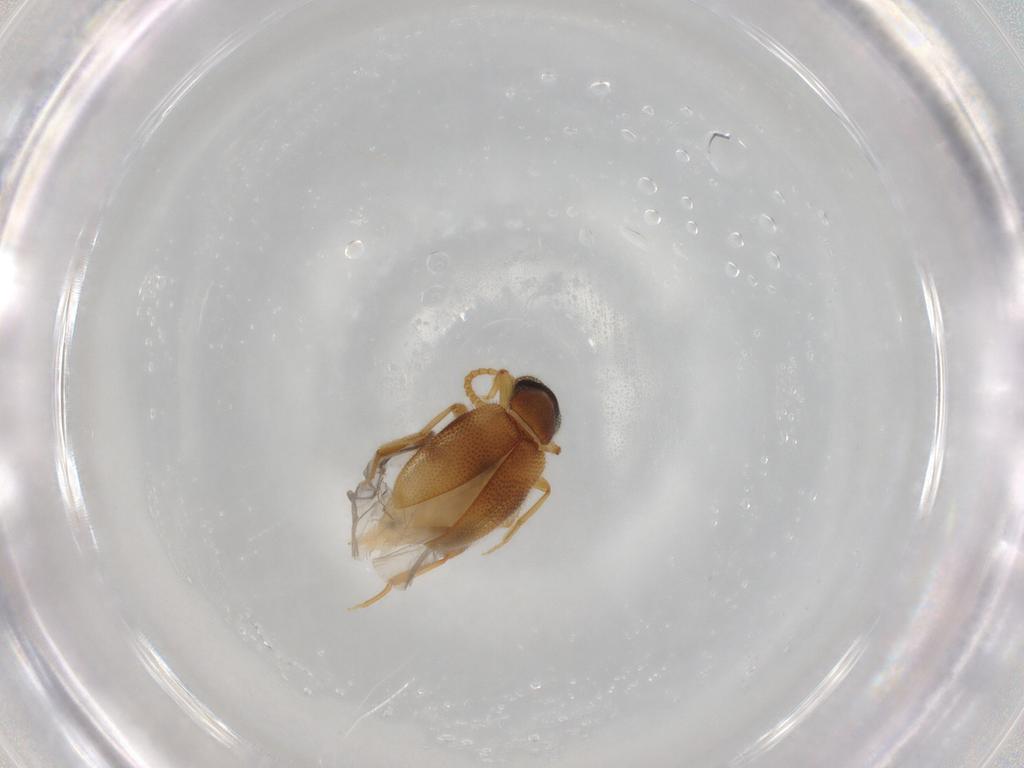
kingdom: Animalia
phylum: Arthropoda
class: Insecta
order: Coleoptera
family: Aderidae
